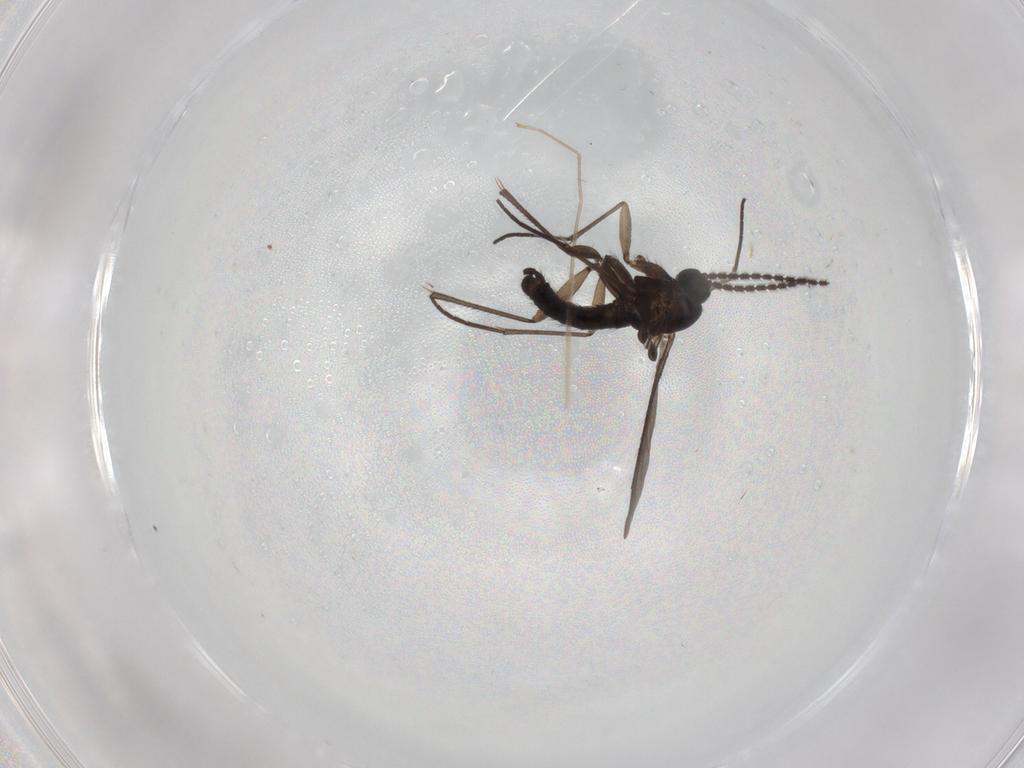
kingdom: Animalia
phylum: Arthropoda
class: Insecta
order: Diptera
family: Sciaridae
